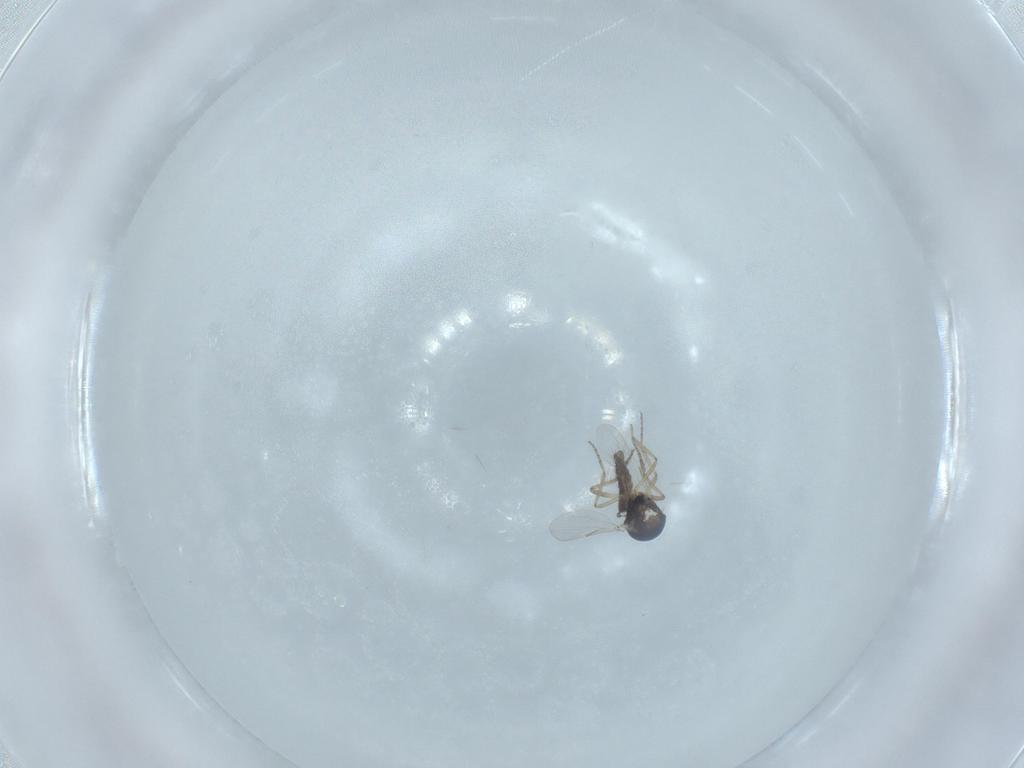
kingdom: Animalia
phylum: Arthropoda
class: Insecta
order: Diptera
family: Ceratopogonidae
